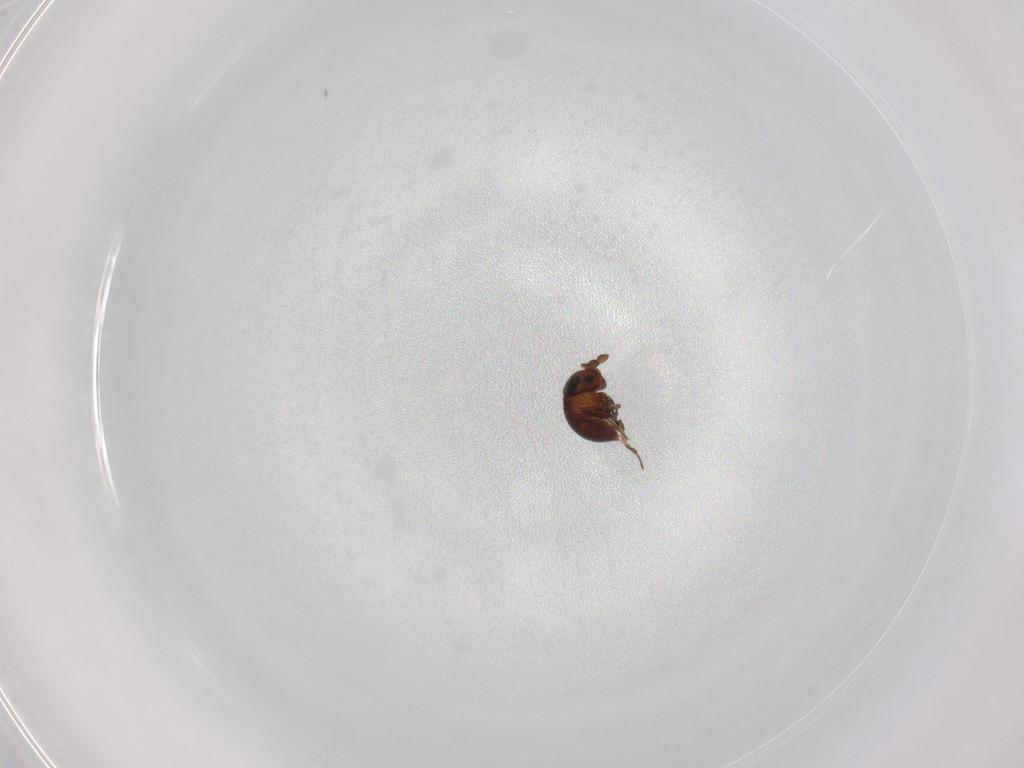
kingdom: Animalia
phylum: Arthropoda
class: Insecta
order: Hymenoptera
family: Scelionidae
